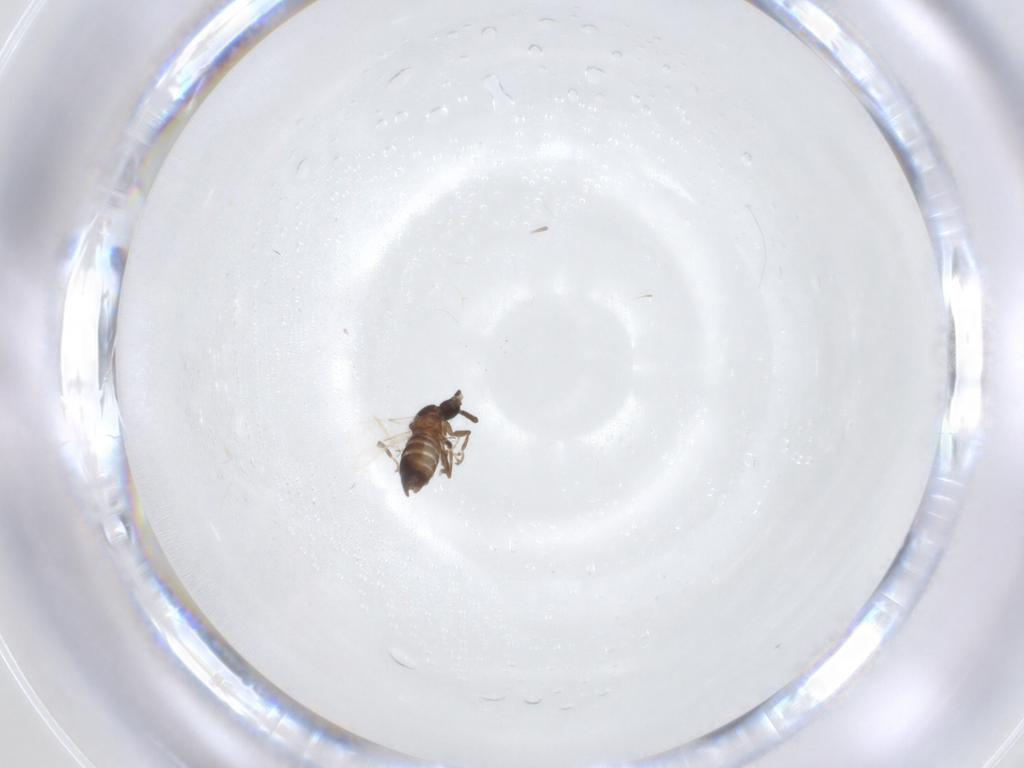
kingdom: Animalia
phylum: Arthropoda
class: Insecta
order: Diptera
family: Scatopsidae
